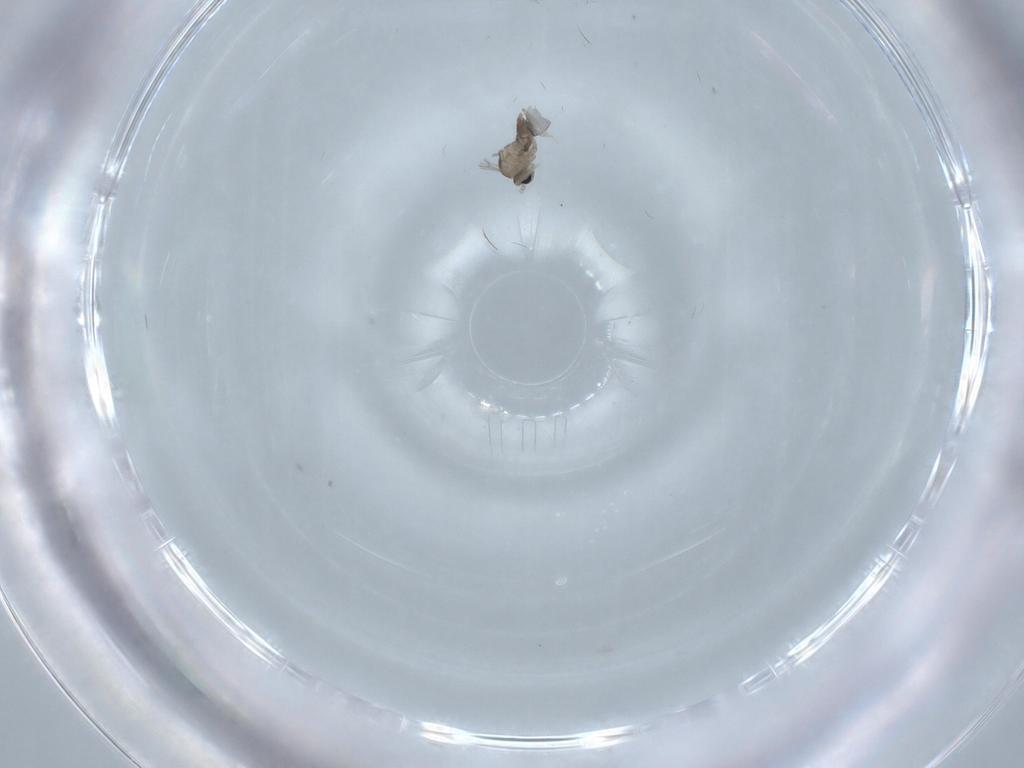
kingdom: Animalia
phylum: Arthropoda
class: Insecta
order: Diptera
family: Cecidomyiidae
